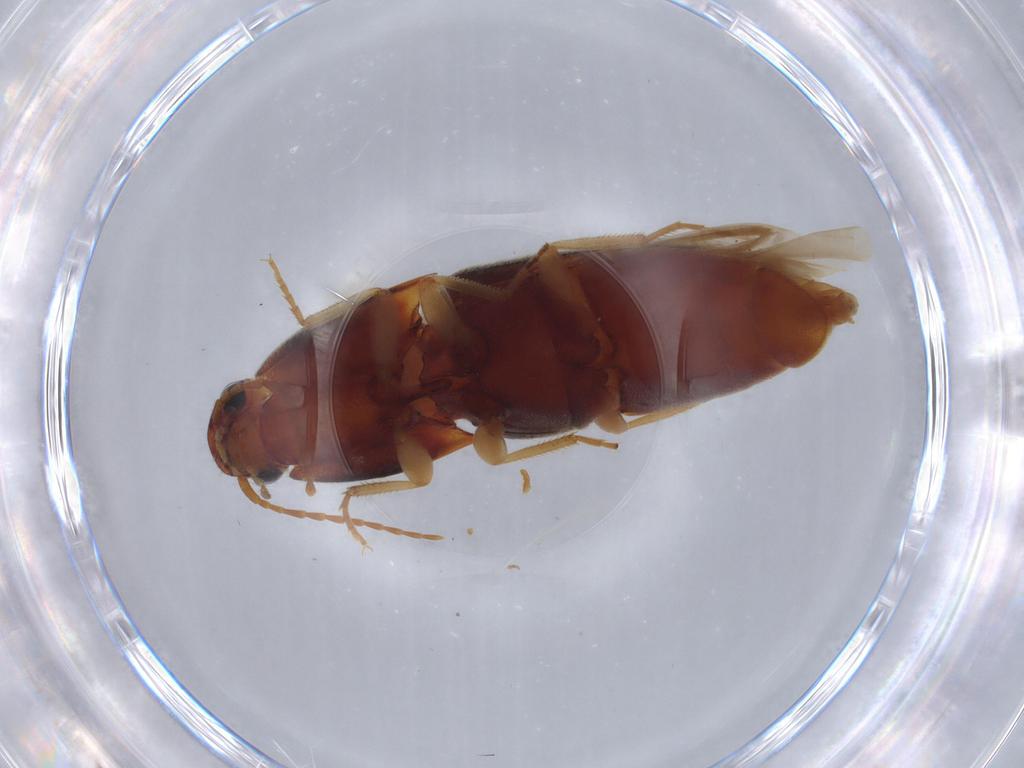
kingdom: Animalia
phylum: Arthropoda
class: Insecta
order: Coleoptera
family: Elateridae
